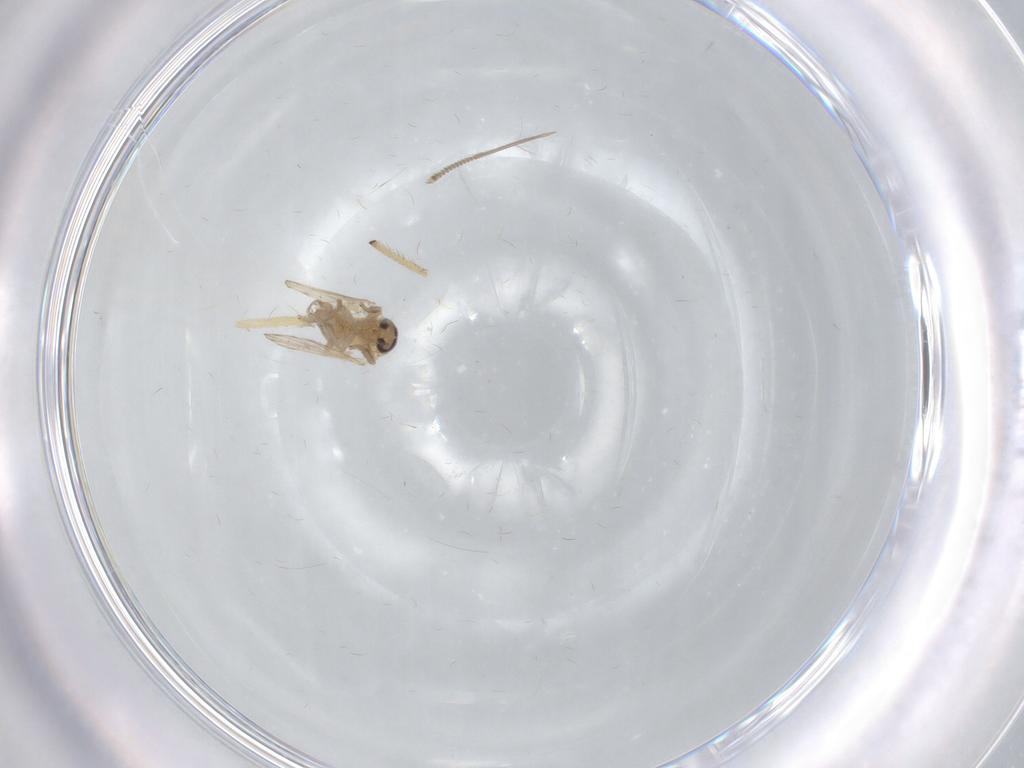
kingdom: Animalia
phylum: Arthropoda
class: Insecta
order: Diptera
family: Psychodidae
